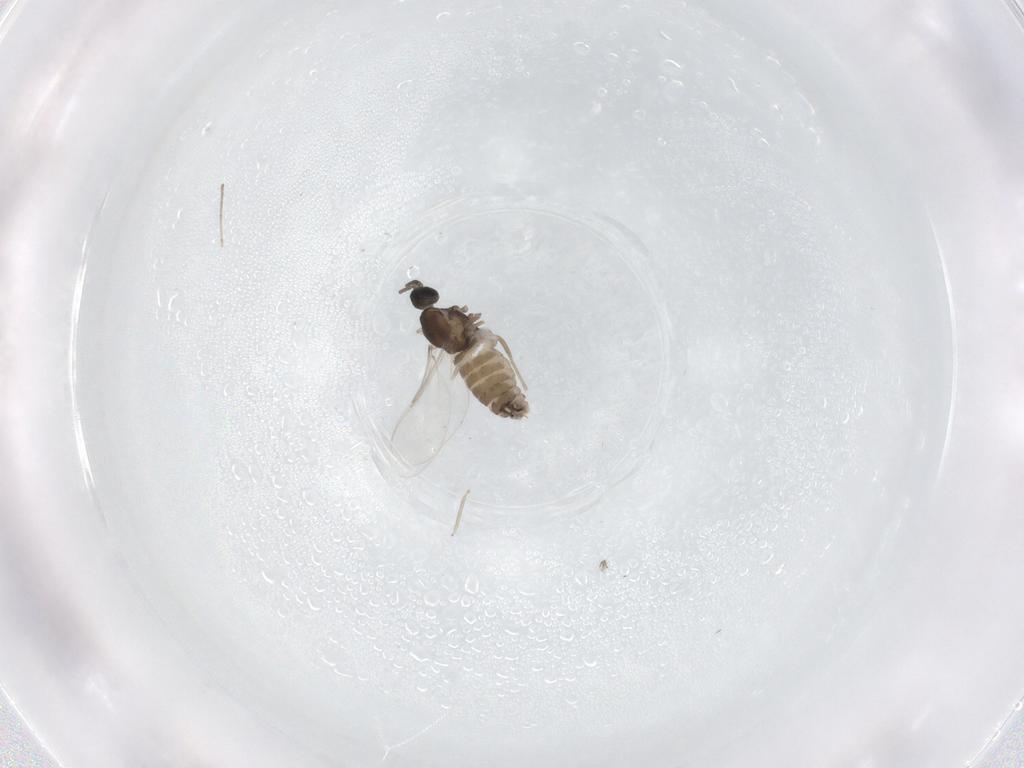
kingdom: Animalia
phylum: Arthropoda
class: Insecta
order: Diptera
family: Cecidomyiidae
